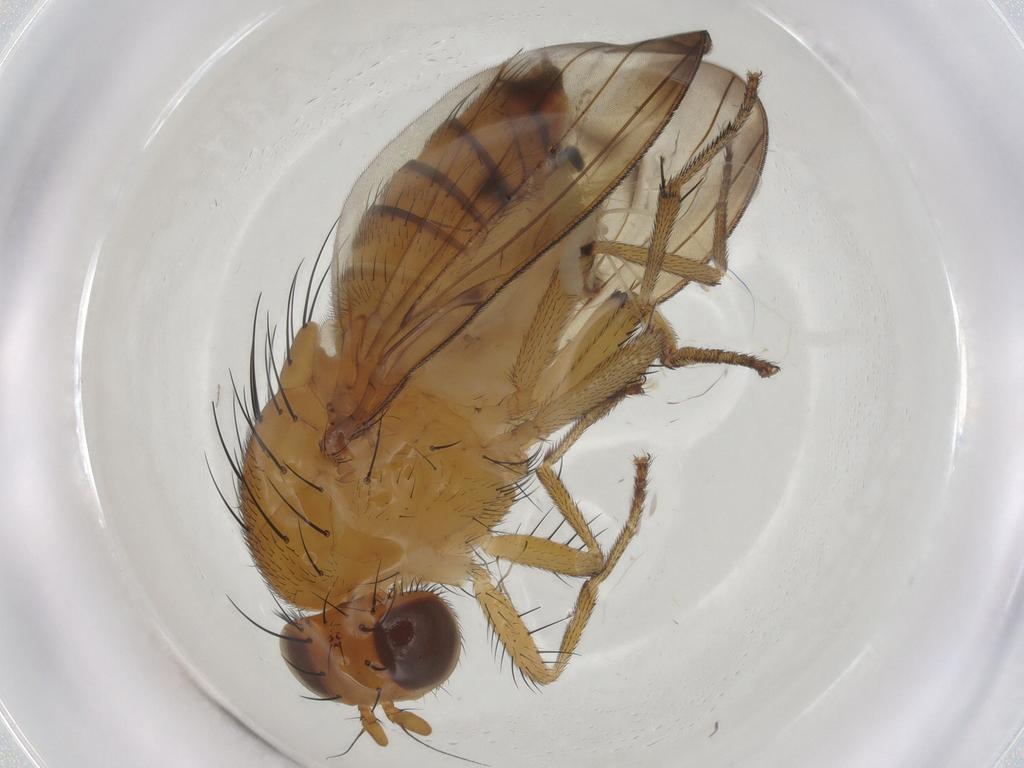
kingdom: Animalia
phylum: Arthropoda
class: Insecta
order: Diptera
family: Cecidomyiidae
